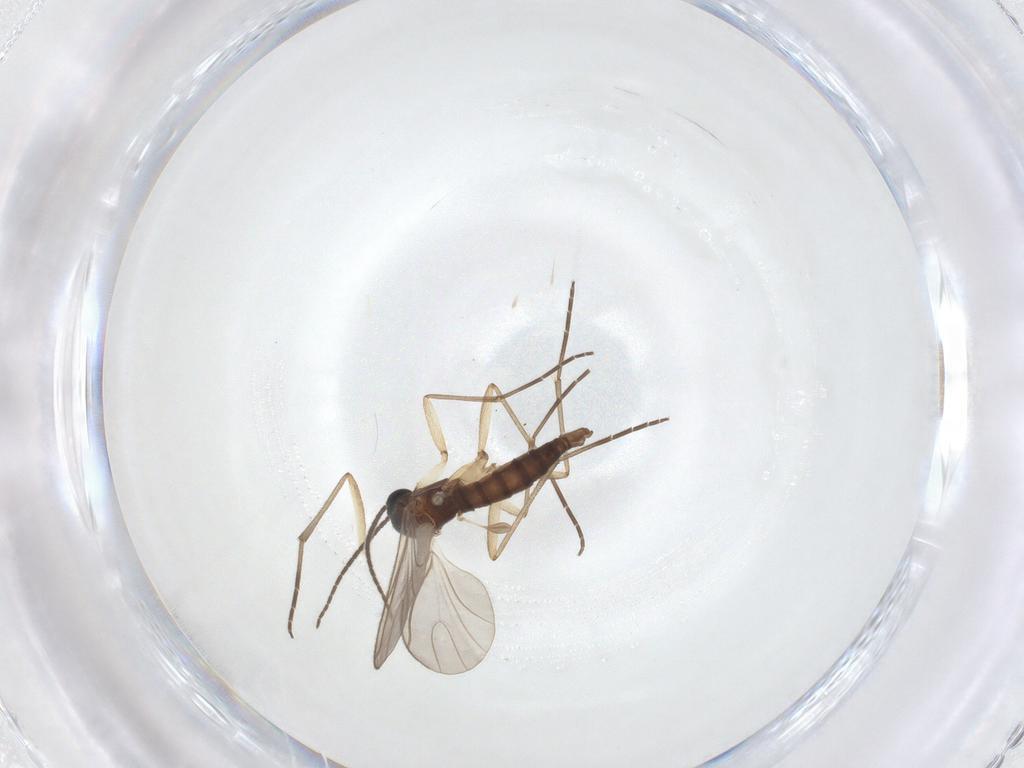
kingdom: Animalia
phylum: Arthropoda
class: Insecta
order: Diptera
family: Sciaridae
